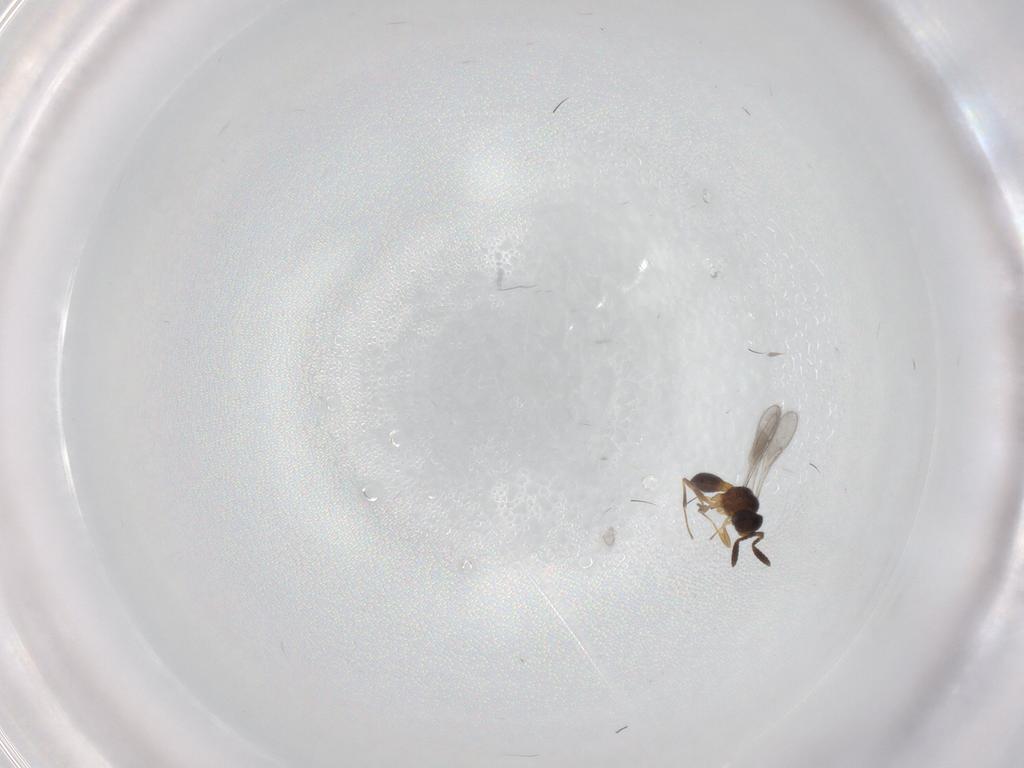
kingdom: Animalia
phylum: Arthropoda
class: Insecta
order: Hymenoptera
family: Scelionidae
